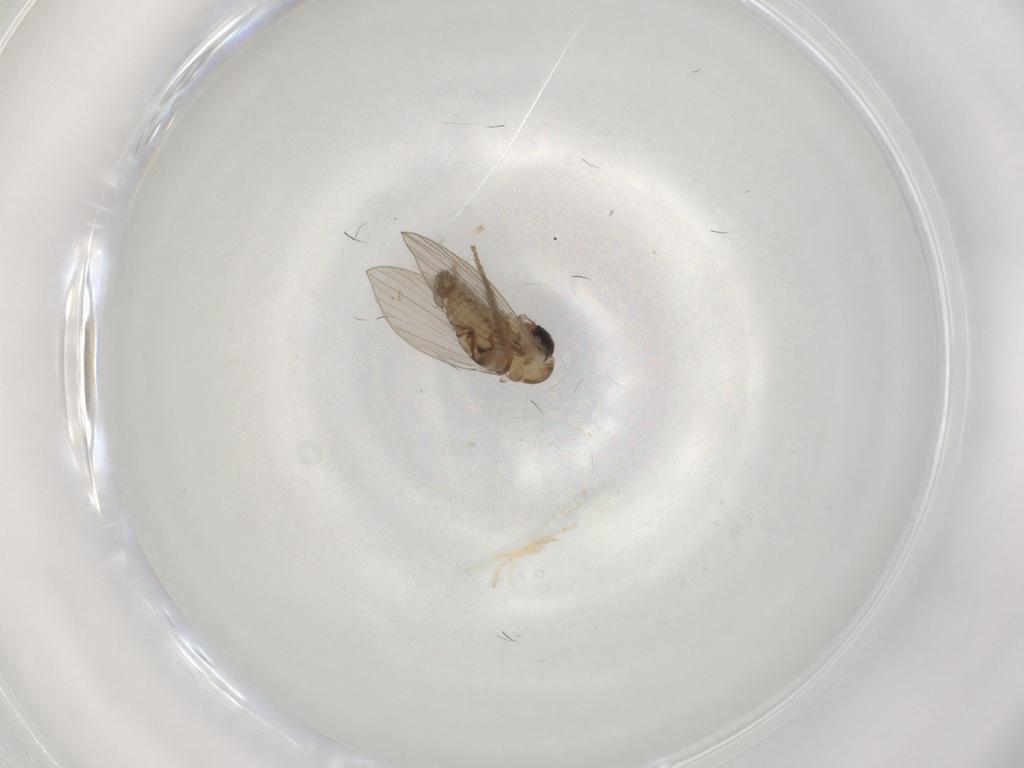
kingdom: Animalia
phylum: Arthropoda
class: Insecta
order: Diptera
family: Psychodidae
